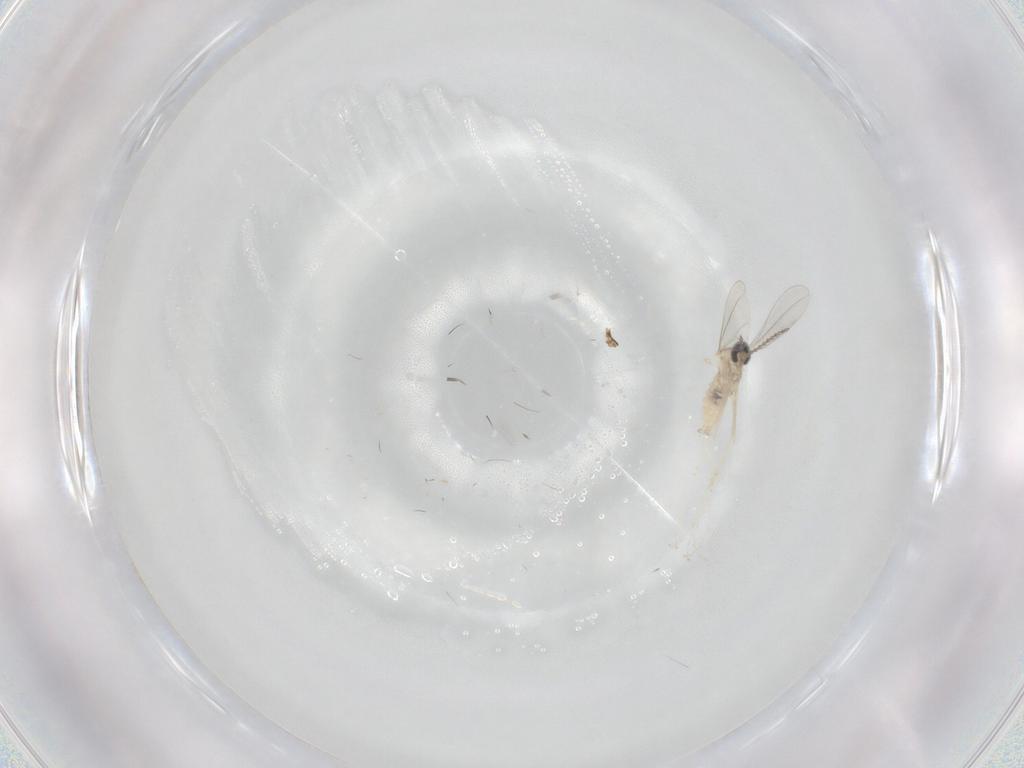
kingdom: Animalia
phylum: Arthropoda
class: Insecta
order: Diptera
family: Cecidomyiidae
